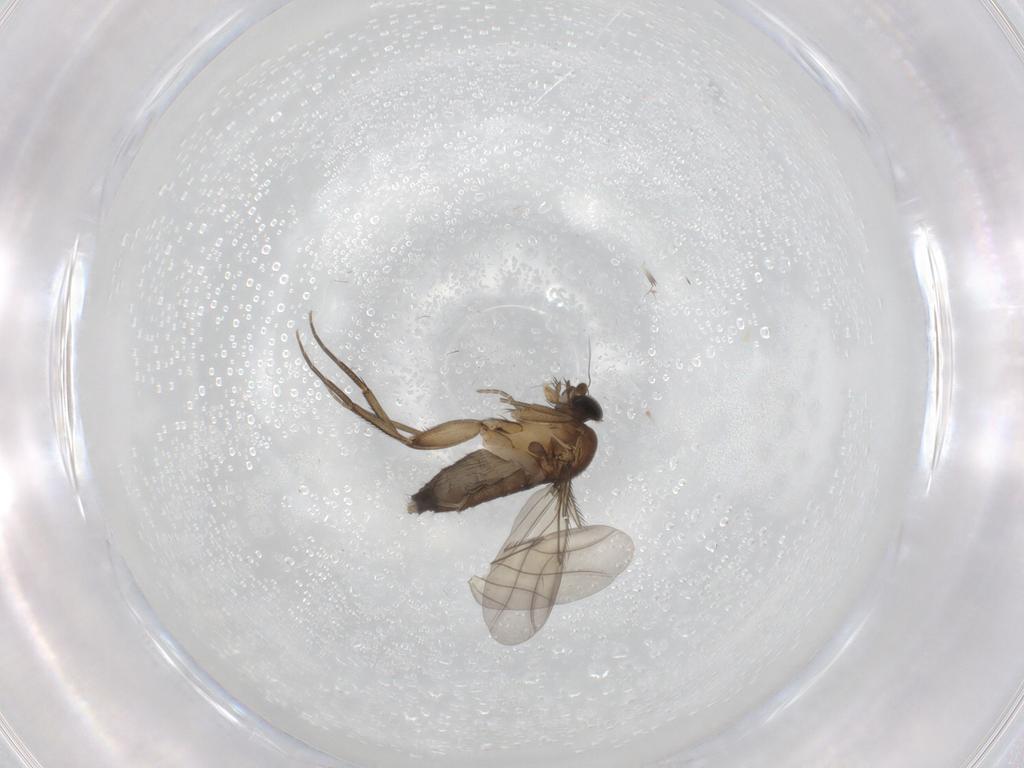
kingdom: Animalia
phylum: Arthropoda
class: Insecta
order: Diptera
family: Phoridae
